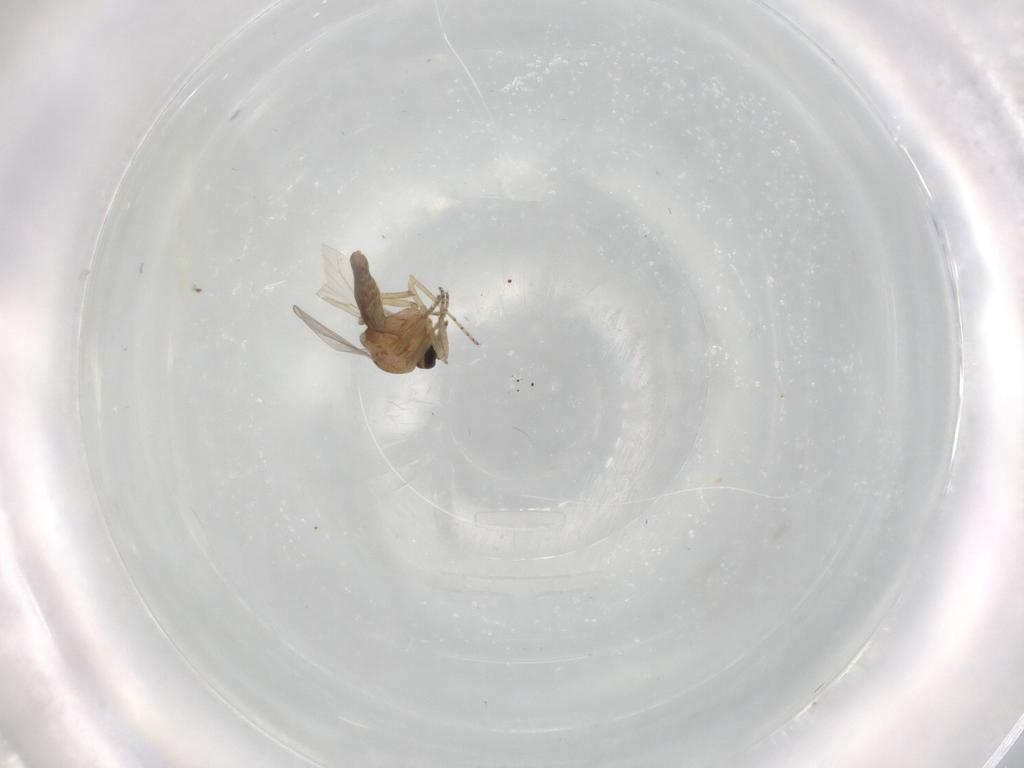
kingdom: Animalia
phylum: Arthropoda
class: Insecta
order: Diptera
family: Ceratopogonidae
